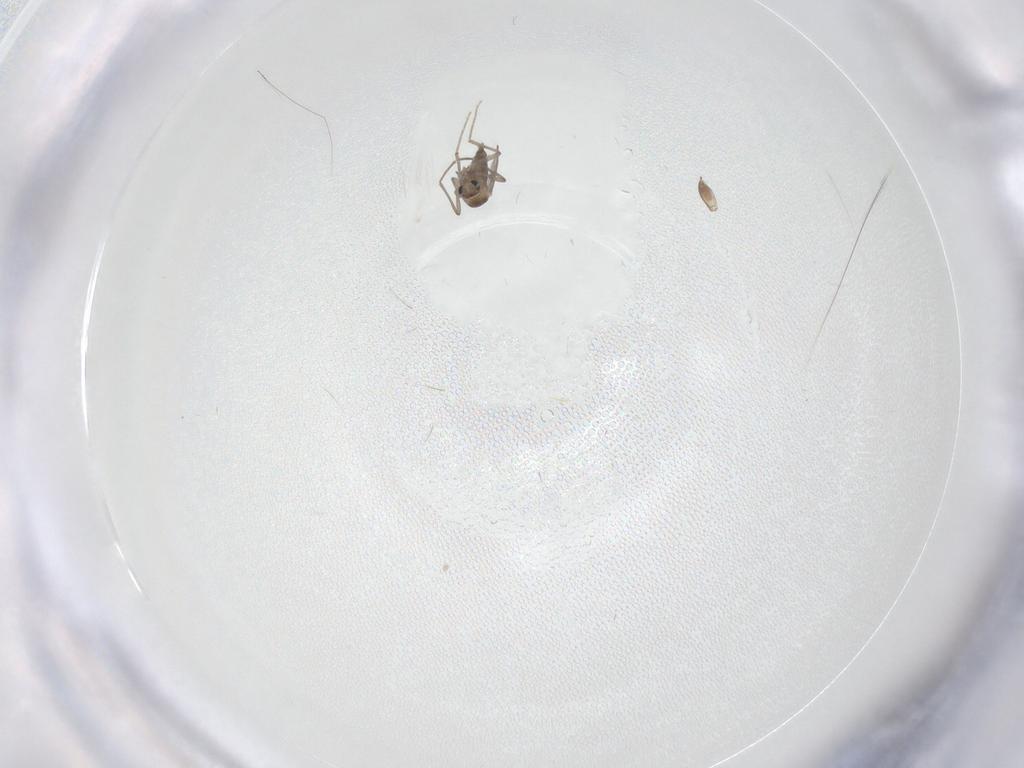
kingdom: Animalia
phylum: Arthropoda
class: Insecta
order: Diptera
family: Chironomidae
